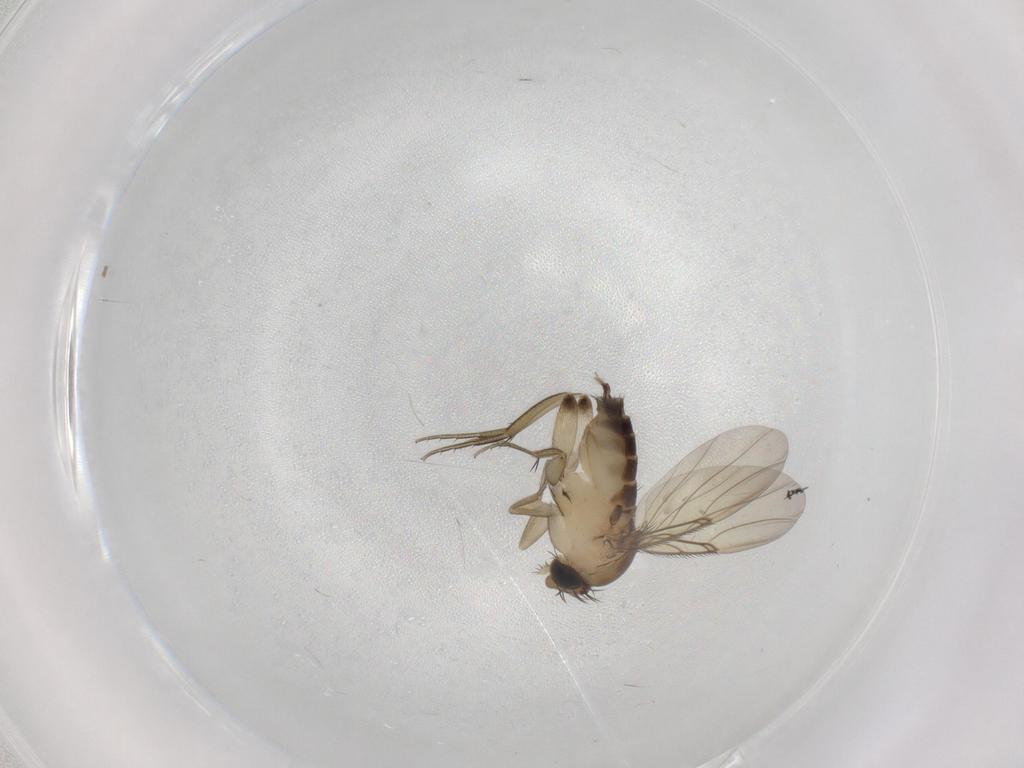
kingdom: Animalia
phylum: Arthropoda
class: Insecta
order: Diptera
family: Phoridae
